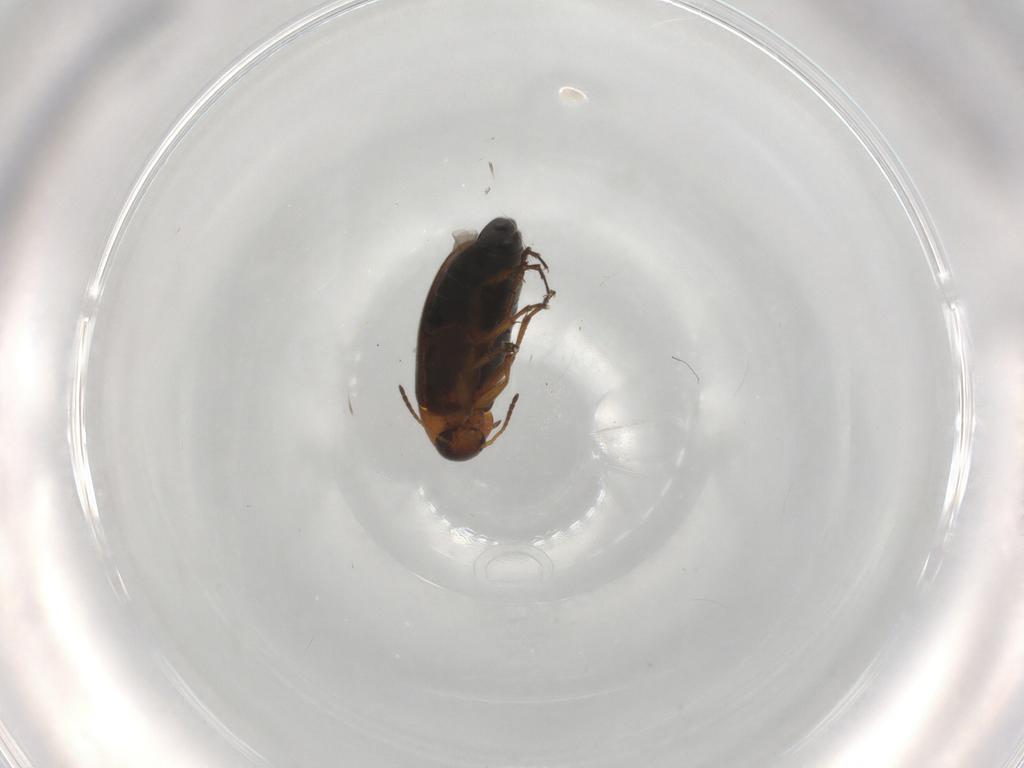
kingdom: Animalia
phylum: Arthropoda
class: Insecta
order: Coleoptera
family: Scraptiidae
